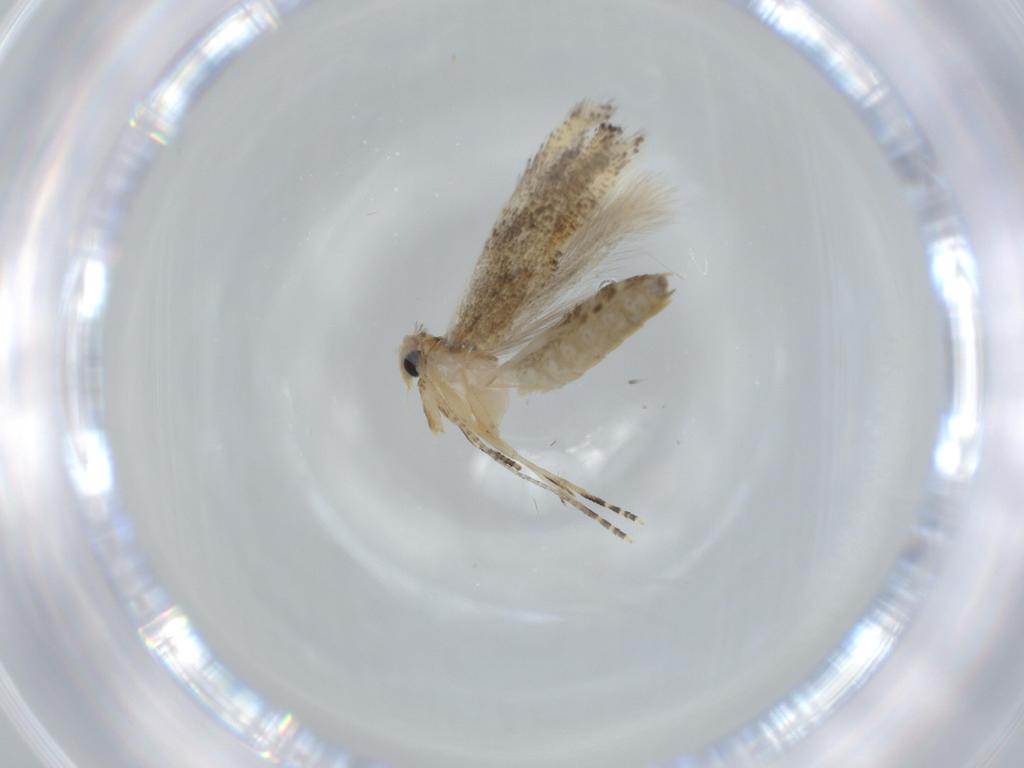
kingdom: Animalia
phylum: Arthropoda
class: Insecta
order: Lepidoptera
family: Bucculatricidae
